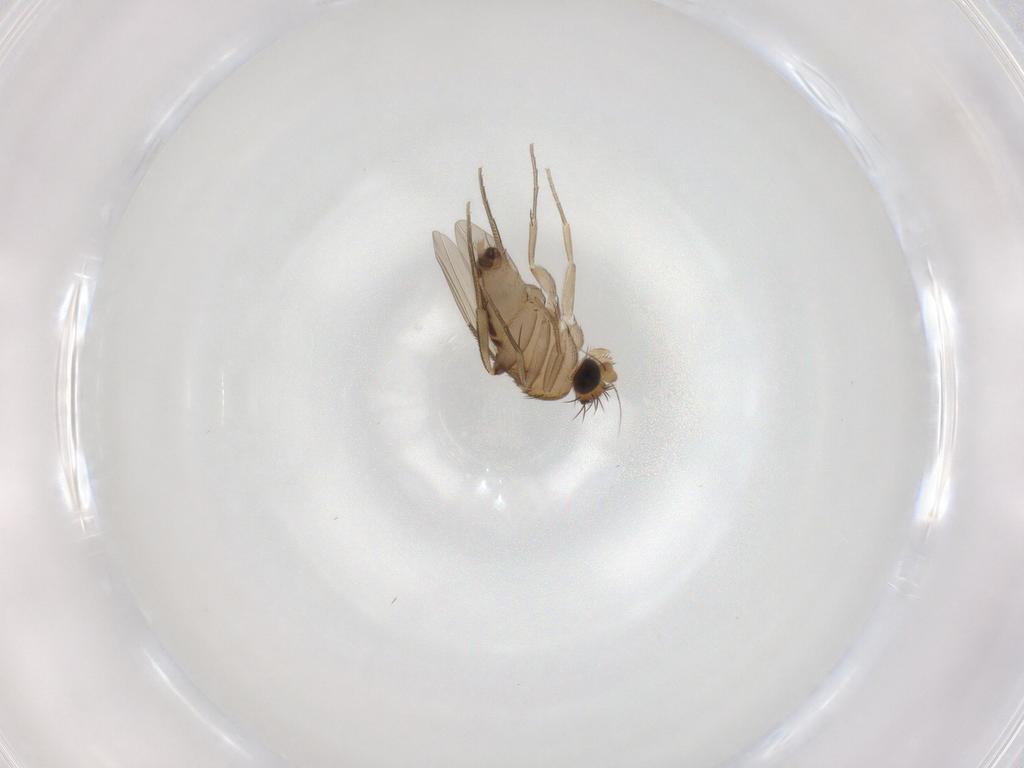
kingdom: Animalia
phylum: Arthropoda
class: Insecta
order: Diptera
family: Phoridae
